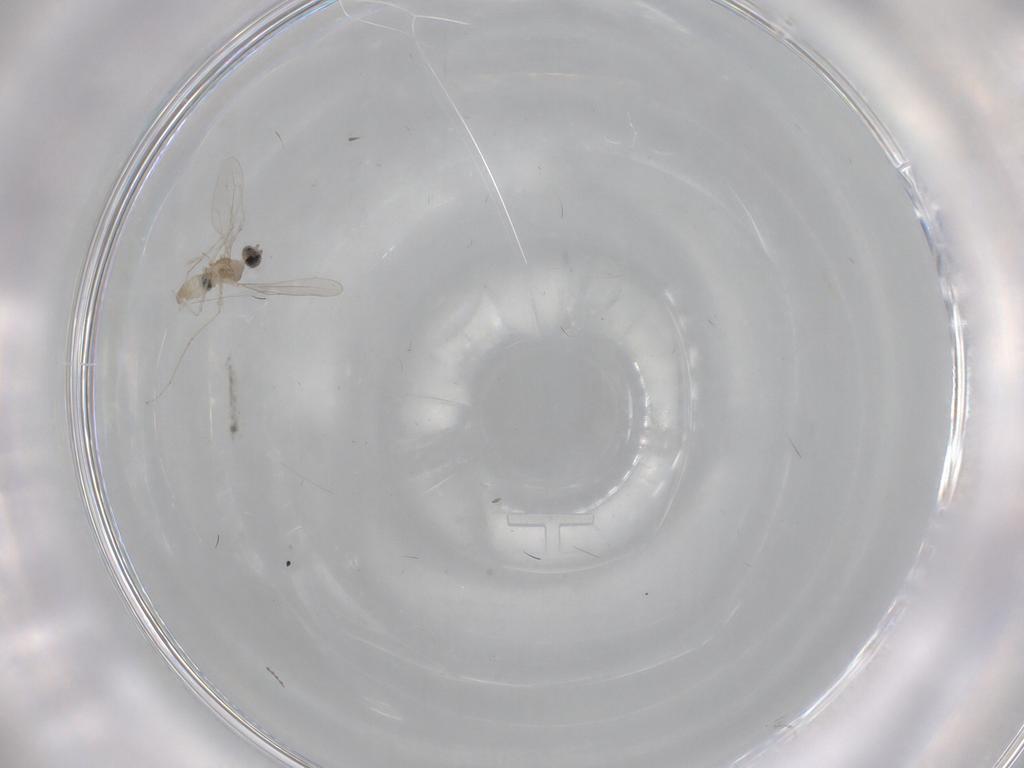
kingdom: Animalia
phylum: Arthropoda
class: Insecta
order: Diptera
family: Cecidomyiidae
